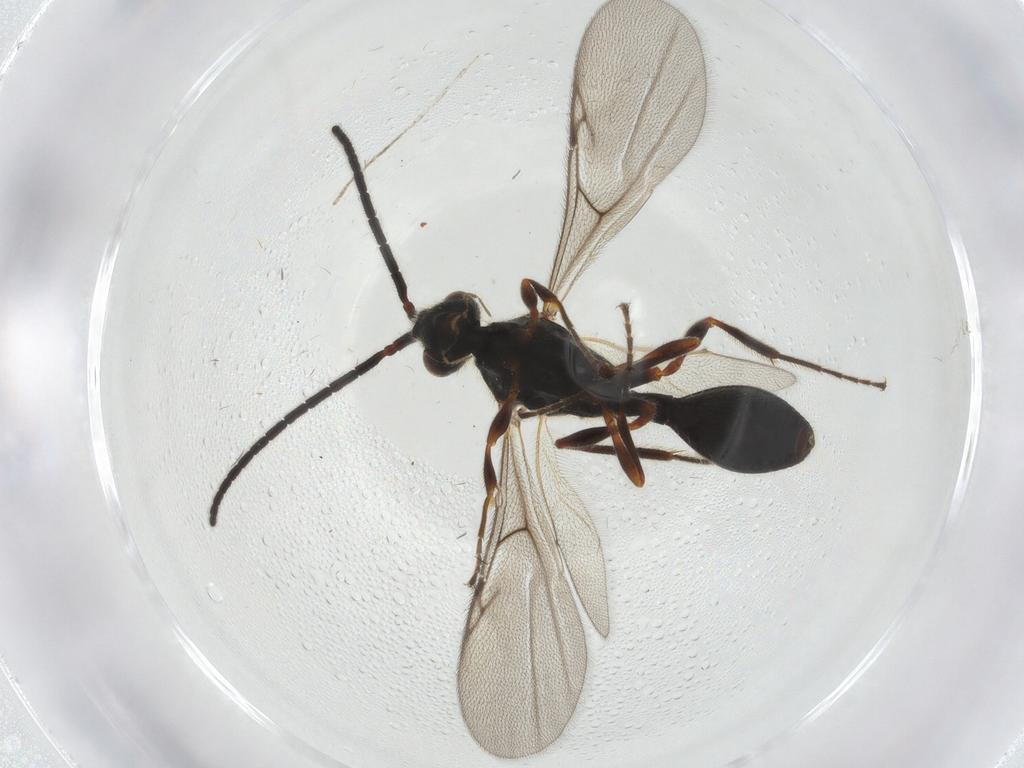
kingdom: Animalia
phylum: Arthropoda
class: Insecta
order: Diptera
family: Chironomidae
